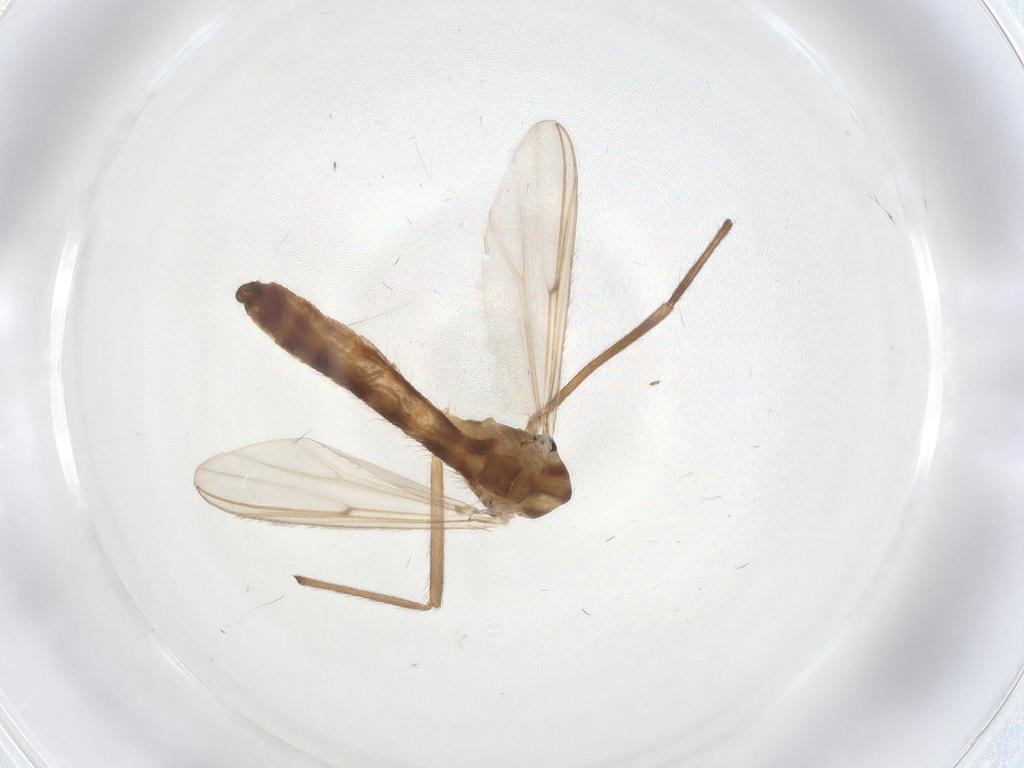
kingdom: Animalia
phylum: Arthropoda
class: Insecta
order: Diptera
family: Chironomidae
